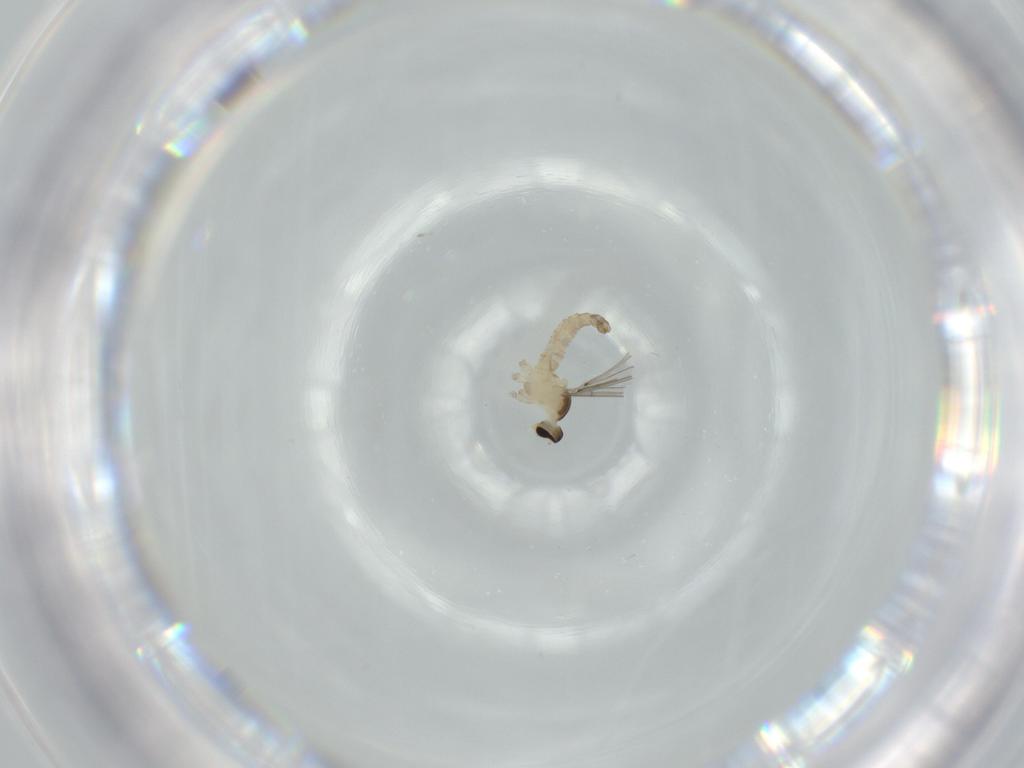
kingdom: Animalia
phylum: Arthropoda
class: Insecta
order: Diptera
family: Cecidomyiidae
